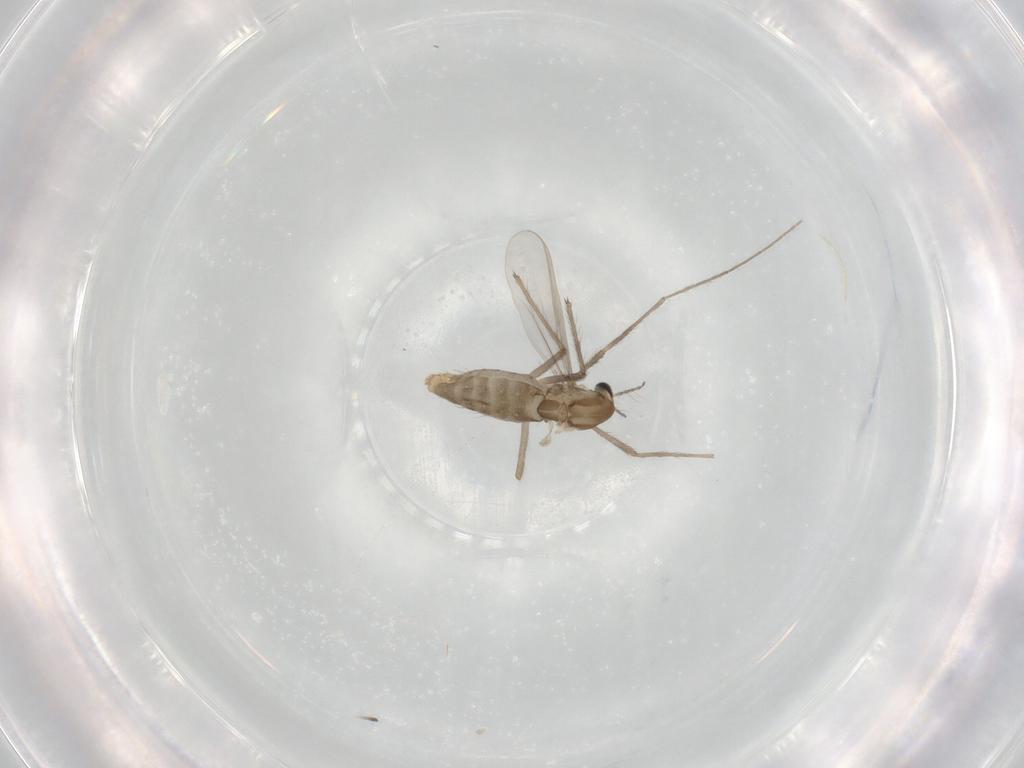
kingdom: Animalia
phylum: Arthropoda
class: Insecta
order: Diptera
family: Chironomidae
